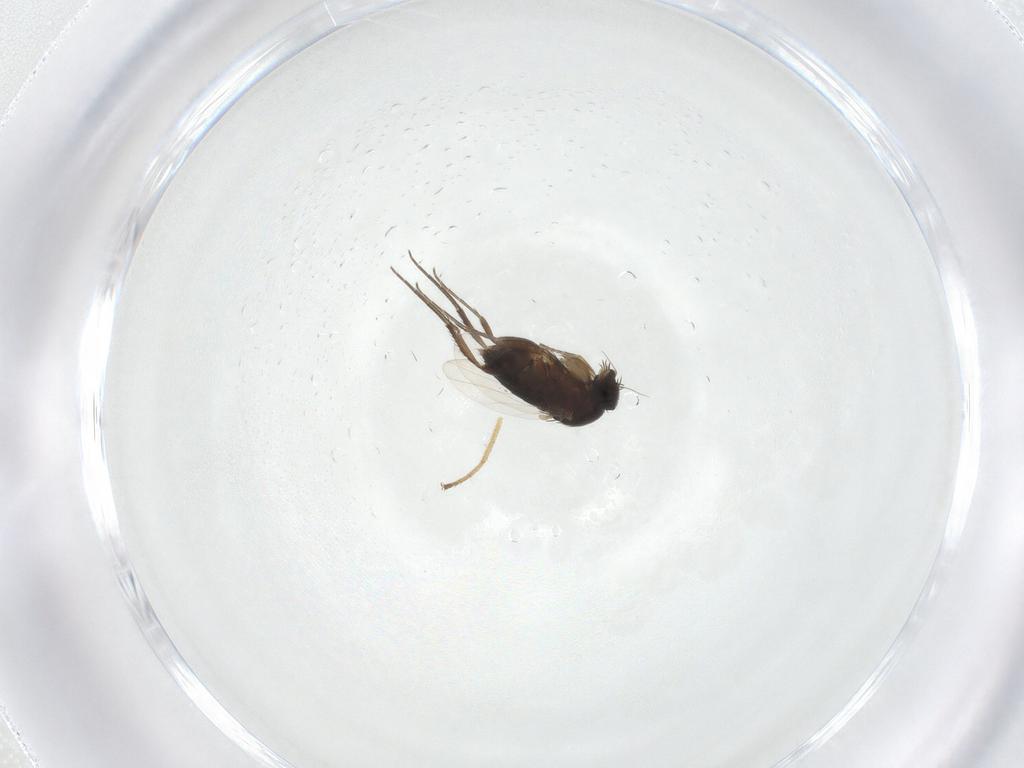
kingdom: Animalia
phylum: Arthropoda
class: Insecta
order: Diptera
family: Sciaridae
